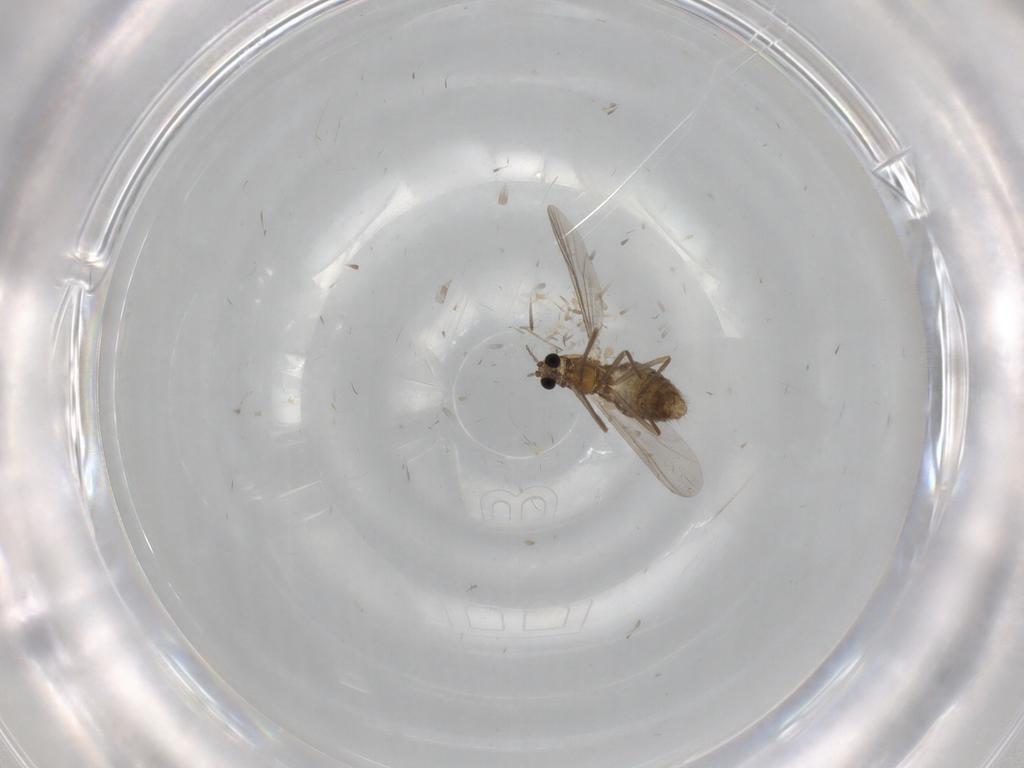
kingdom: Animalia
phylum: Arthropoda
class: Insecta
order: Diptera
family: Chironomidae
